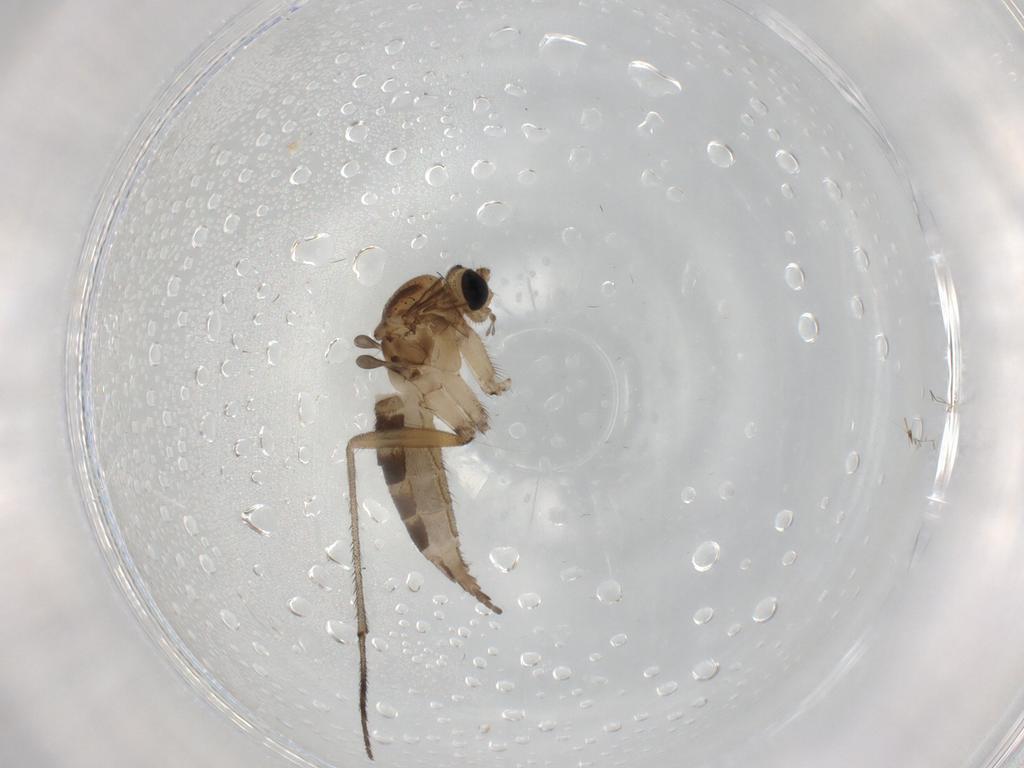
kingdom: Animalia
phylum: Arthropoda
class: Insecta
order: Diptera
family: Sciaridae
